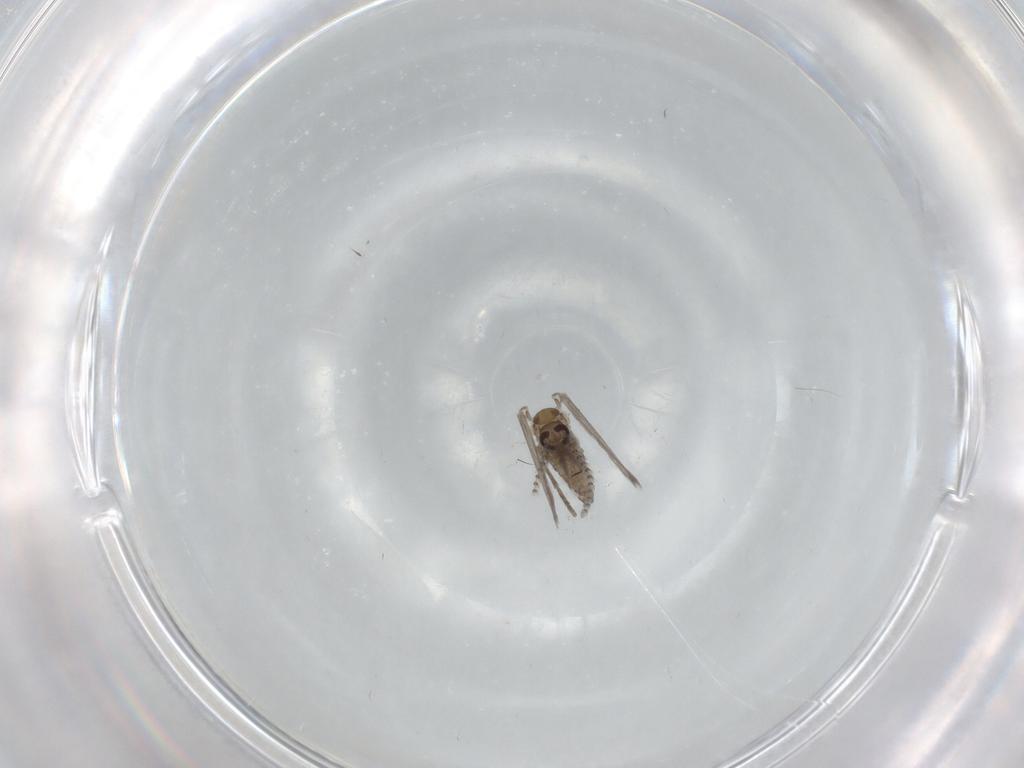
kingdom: Animalia
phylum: Arthropoda
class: Insecta
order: Diptera
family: Psychodidae
